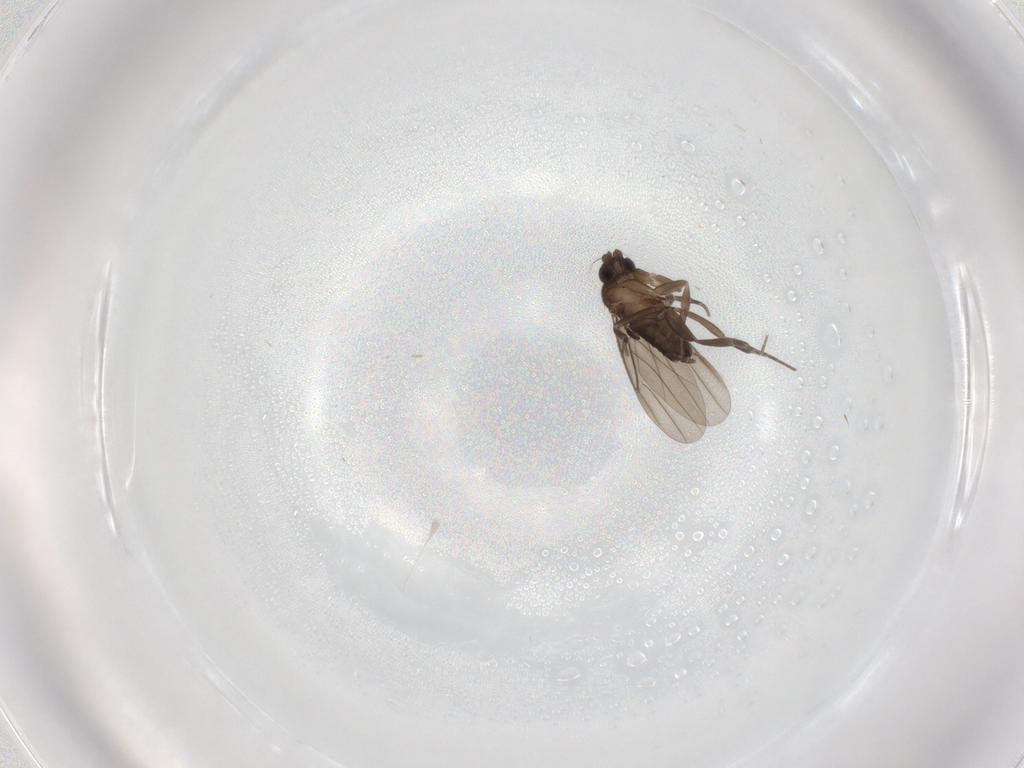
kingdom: Animalia
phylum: Arthropoda
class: Insecta
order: Diptera
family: Cecidomyiidae
